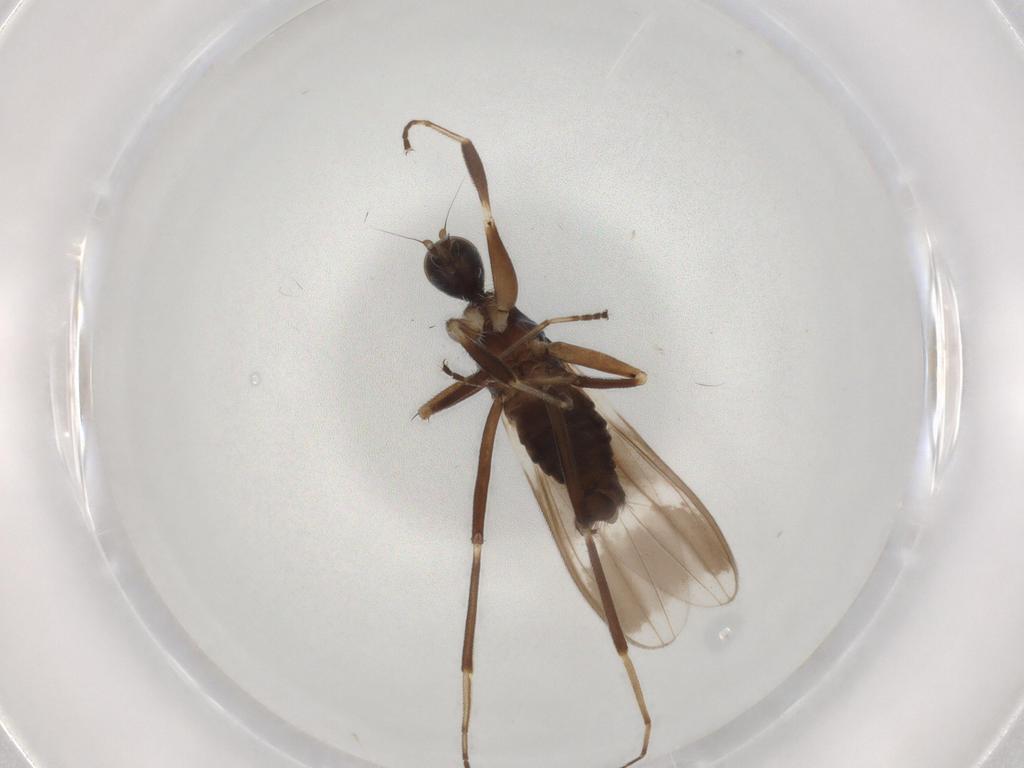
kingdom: Animalia
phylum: Arthropoda
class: Insecta
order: Diptera
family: Hybotidae
